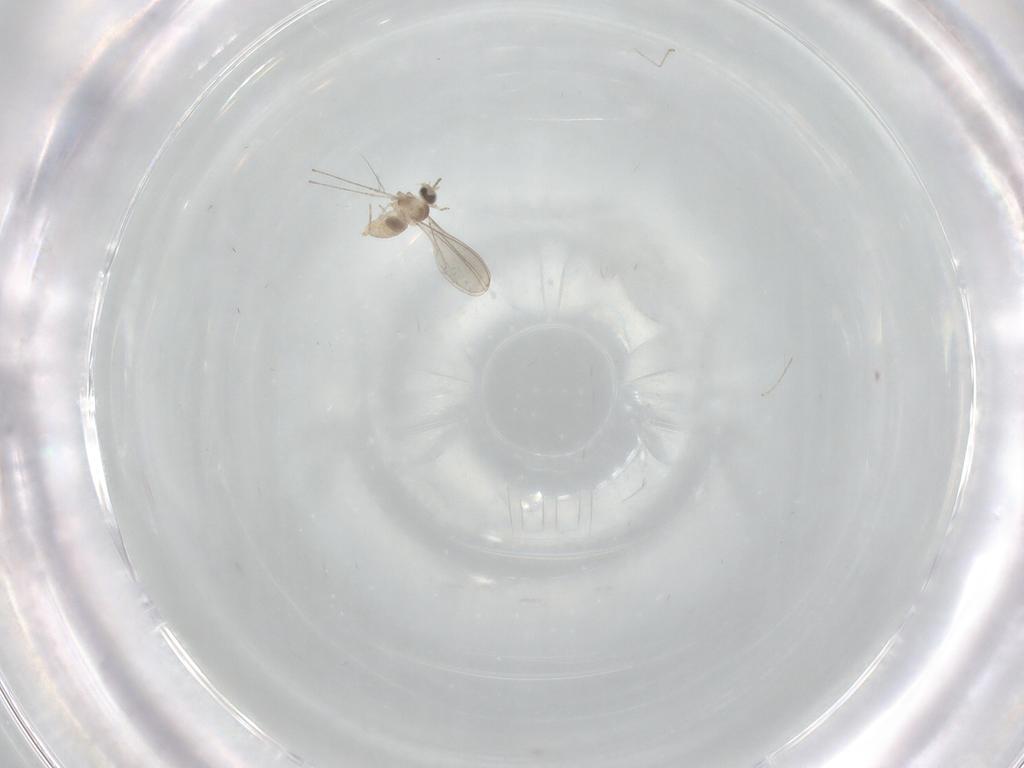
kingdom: Animalia
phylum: Arthropoda
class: Insecta
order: Diptera
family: Cecidomyiidae
